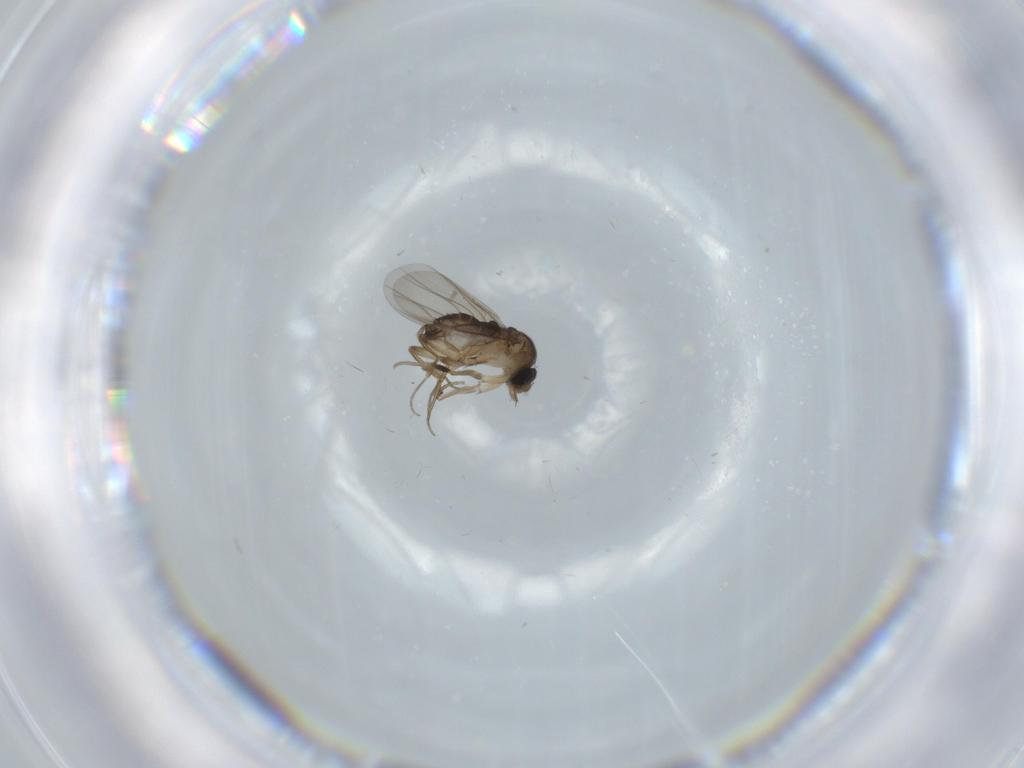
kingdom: Animalia
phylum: Arthropoda
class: Insecta
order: Diptera
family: Phoridae
